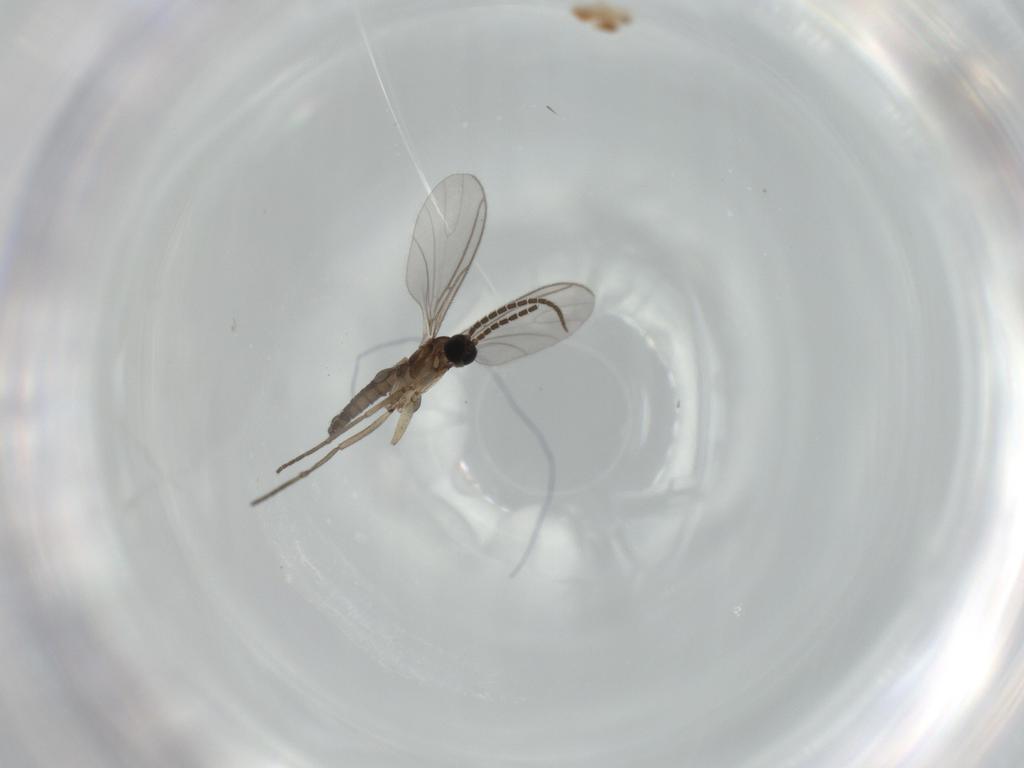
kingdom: Animalia
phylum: Arthropoda
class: Insecta
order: Diptera
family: Sciaridae
